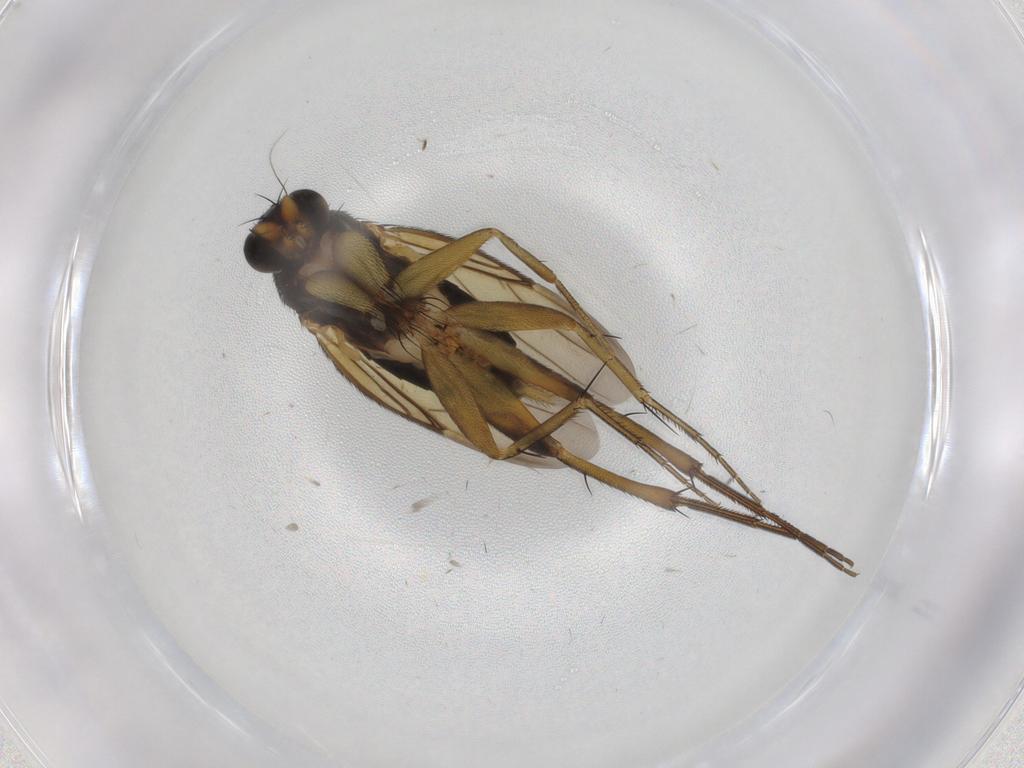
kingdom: Animalia
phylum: Arthropoda
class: Insecta
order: Diptera
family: Phoridae
